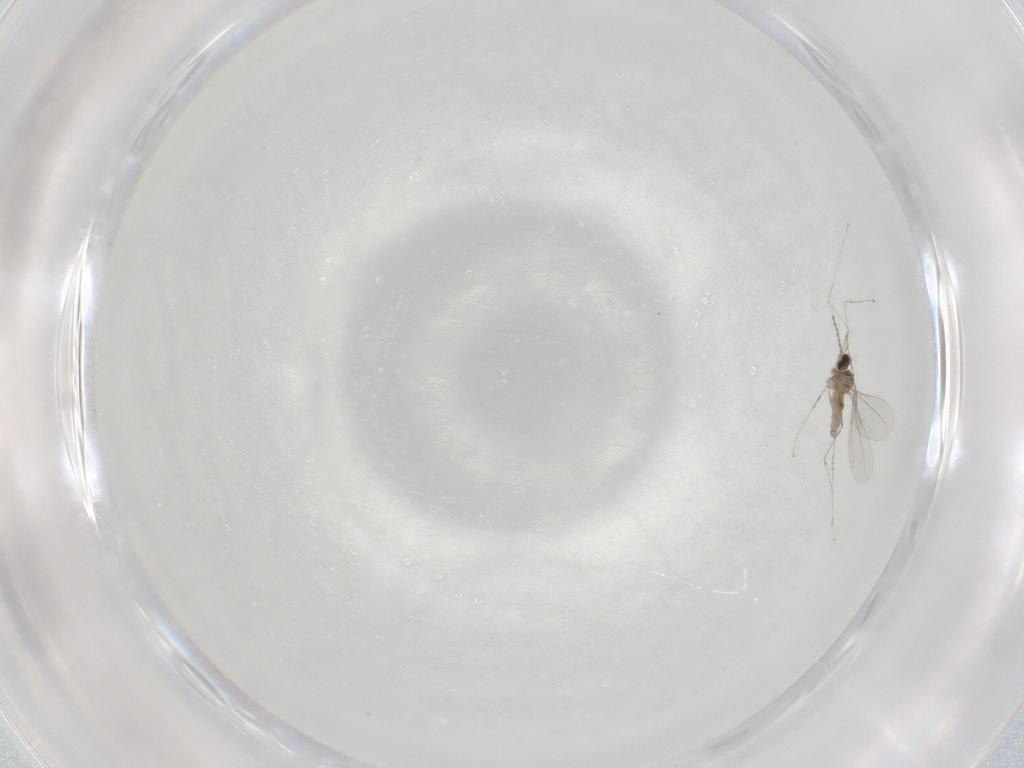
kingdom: Animalia
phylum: Arthropoda
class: Insecta
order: Diptera
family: Cecidomyiidae
